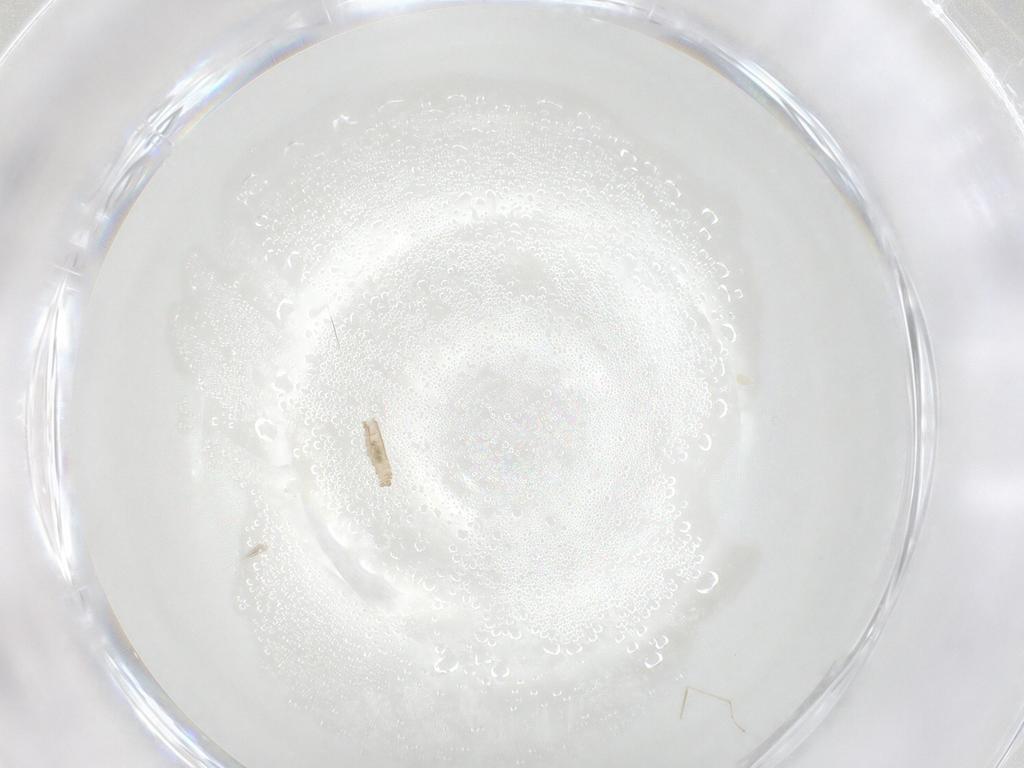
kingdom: Animalia
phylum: Arthropoda
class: Insecta
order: Diptera
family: Cecidomyiidae
